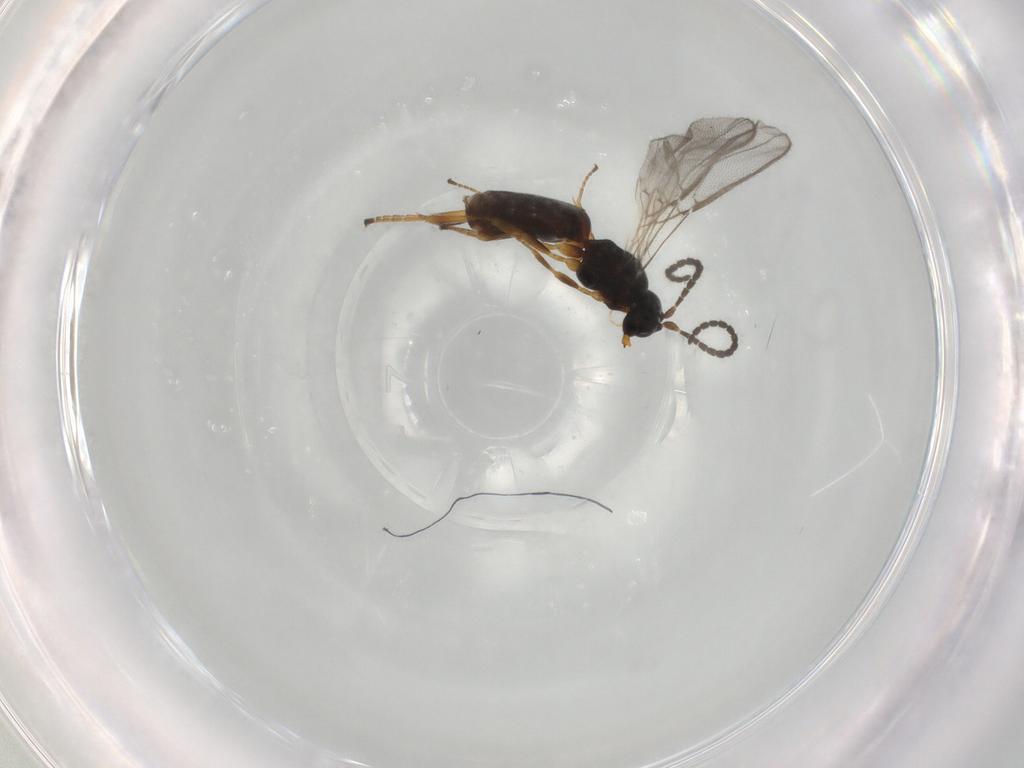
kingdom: Animalia
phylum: Arthropoda
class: Insecta
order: Hymenoptera
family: Braconidae
